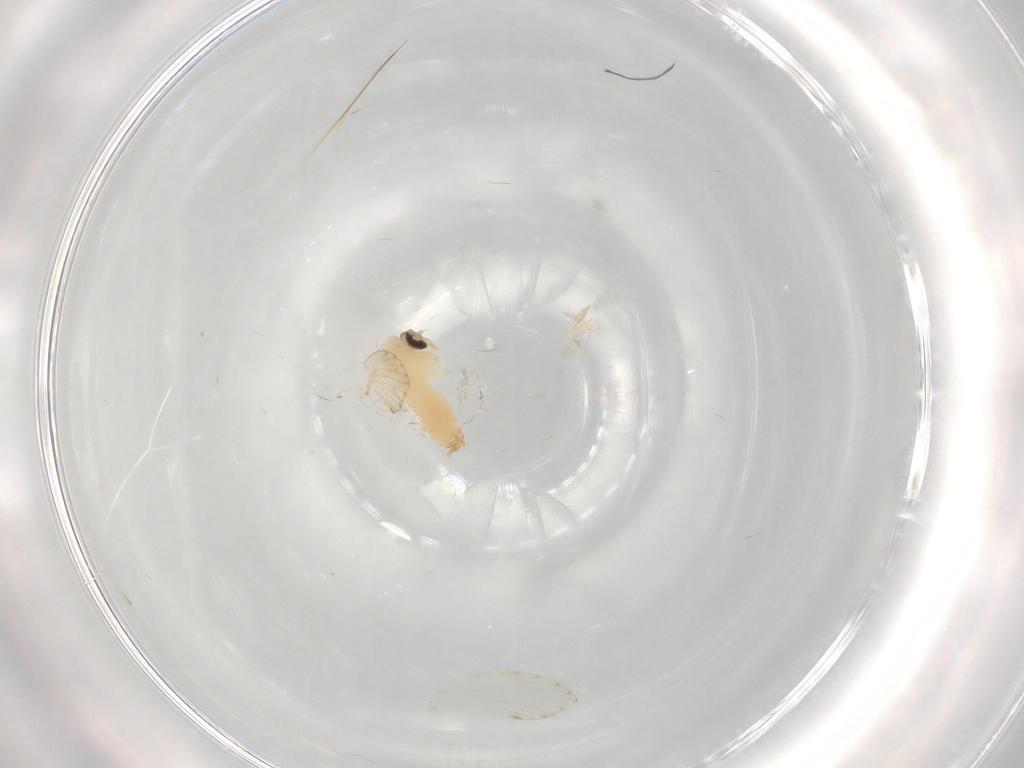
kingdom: Animalia
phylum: Arthropoda
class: Insecta
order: Diptera
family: Psychodidae
